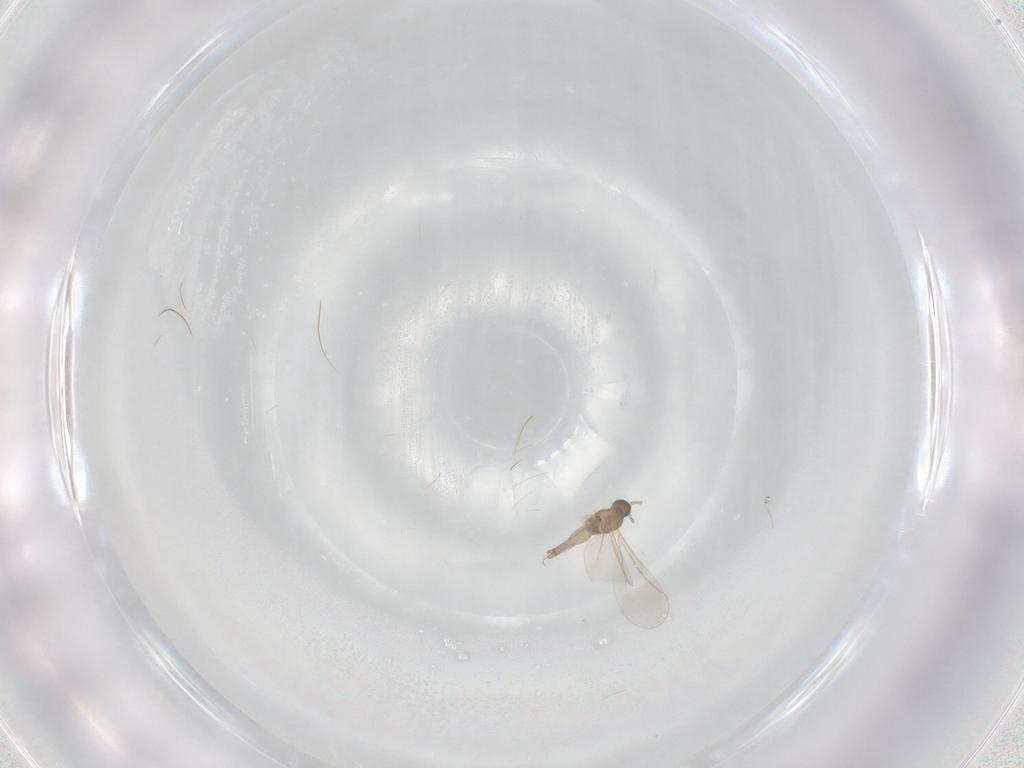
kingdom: Animalia
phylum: Arthropoda
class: Insecta
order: Diptera
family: Cecidomyiidae
